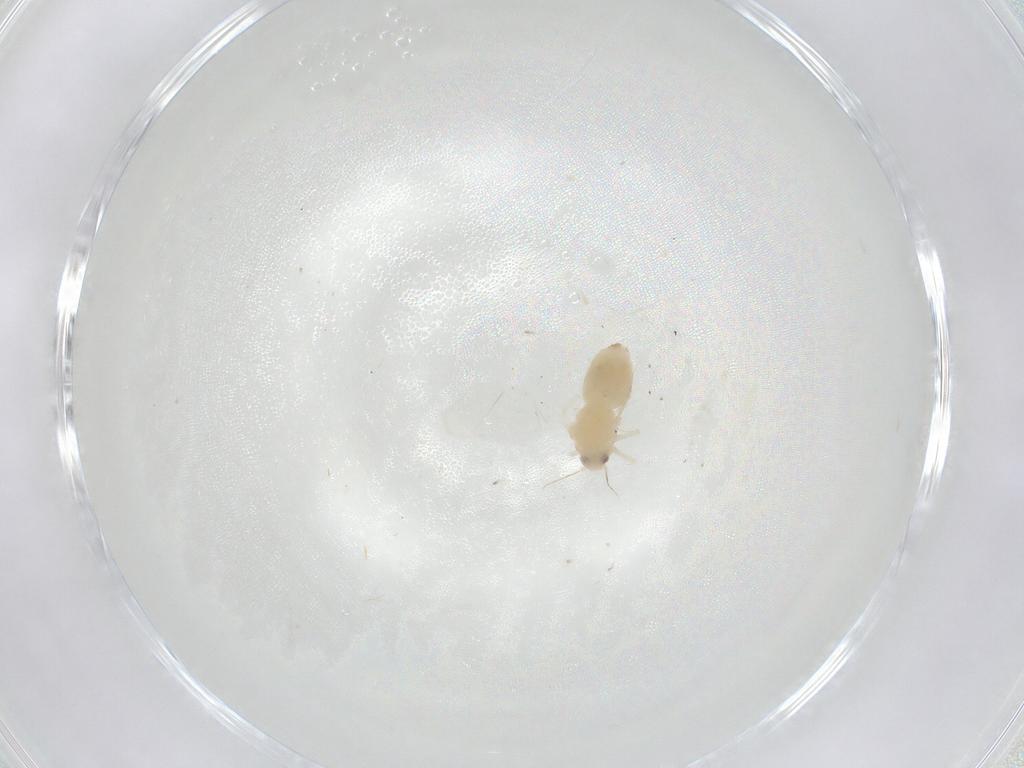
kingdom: Animalia
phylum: Arthropoda
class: Insecta
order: Hemiptera
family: Aleyrodidae
